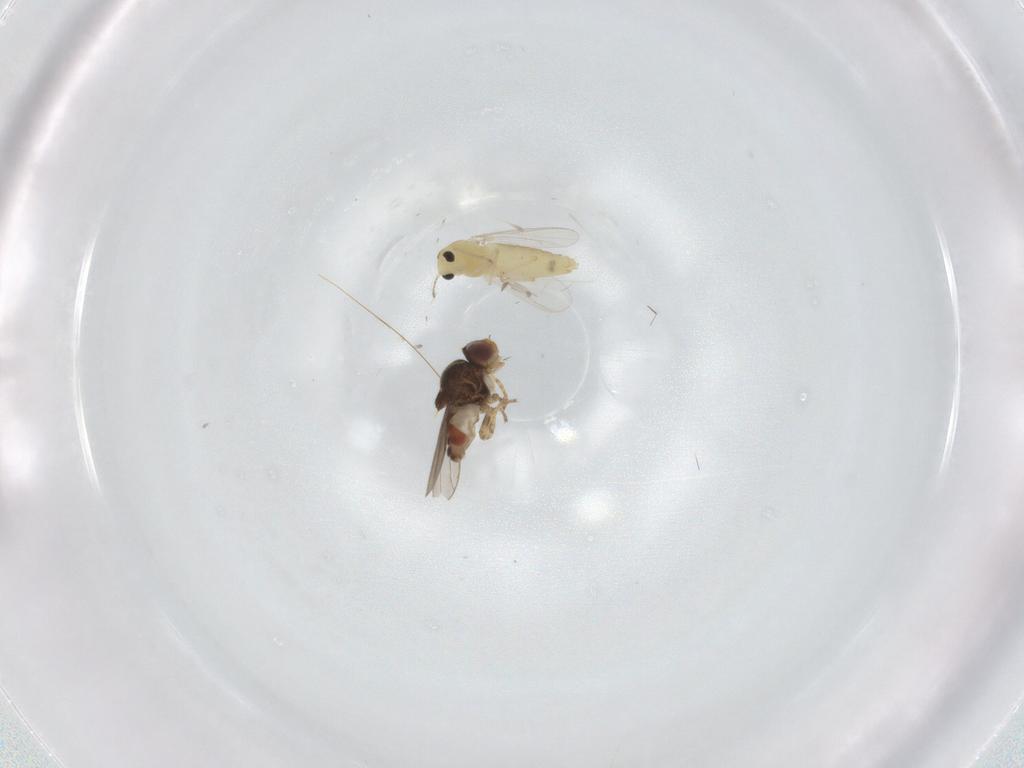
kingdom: Animalia
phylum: Arthropoda
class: Insecta
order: Diptera
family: Chironomidae
